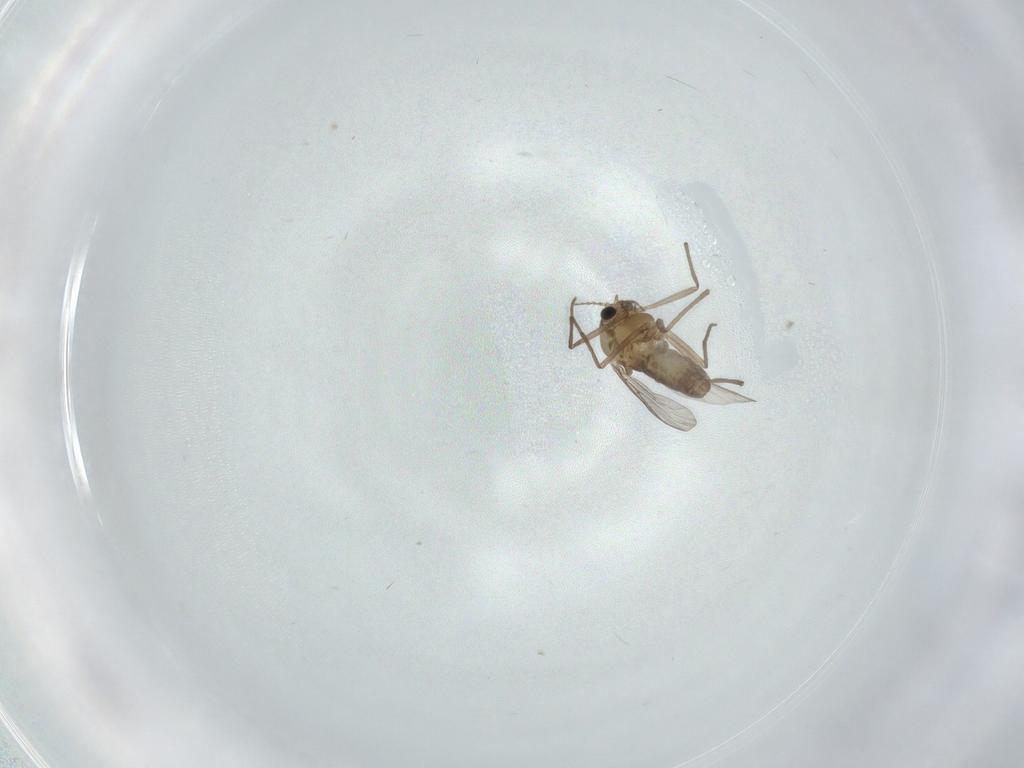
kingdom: Animalia
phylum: Arthropoda
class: Insecta
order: Diptera
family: Chironomidae
